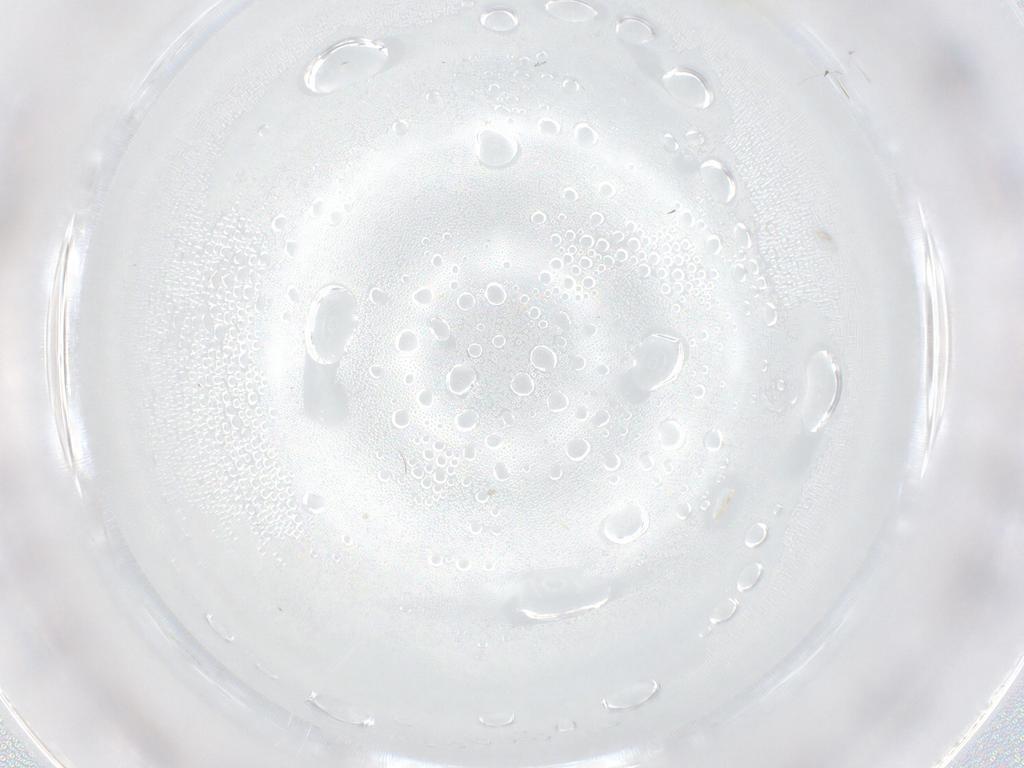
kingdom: Animalia
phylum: Arthropoda
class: Insecta
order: Diptera
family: Cecidomyiidae
